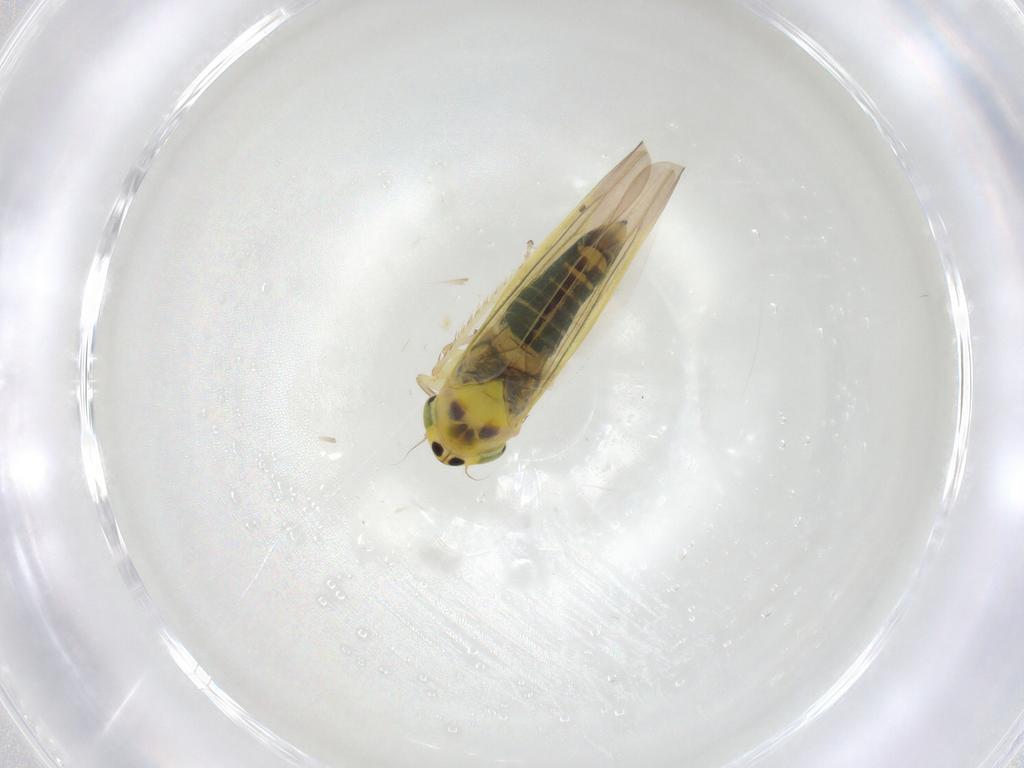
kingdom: Animalia
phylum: Arthropoda
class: Insecta
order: Hemiptera
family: Cicadellidae
